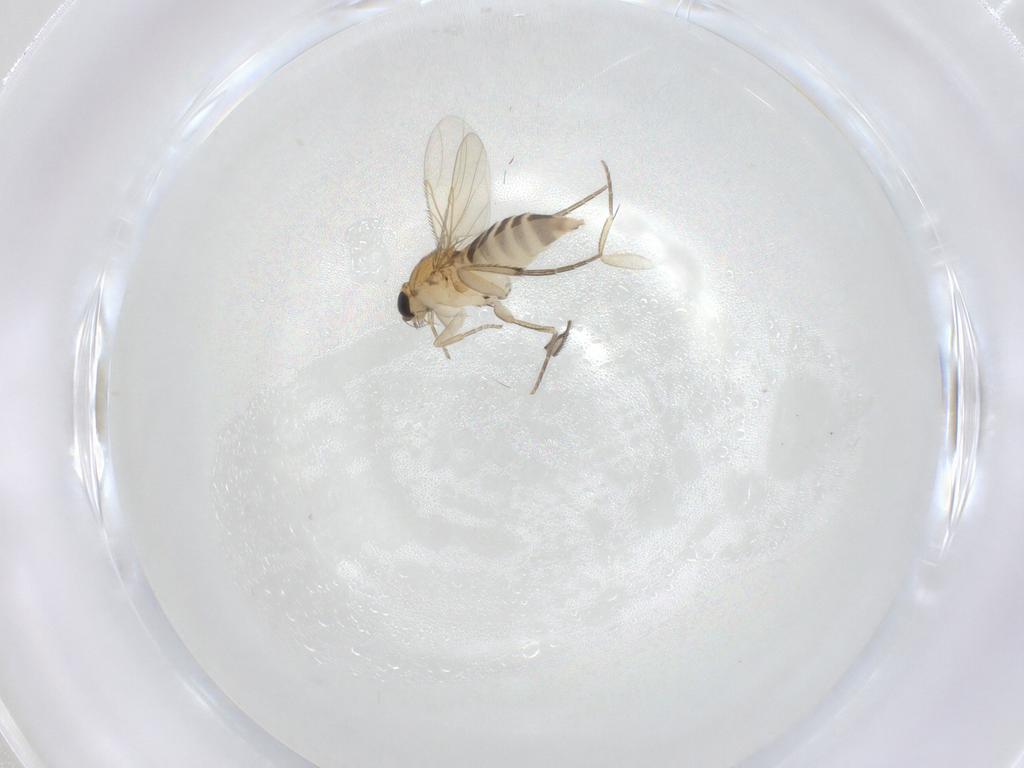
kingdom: Animalia
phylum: Arthropoda
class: Insecta
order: Diptera
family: Phoridae
